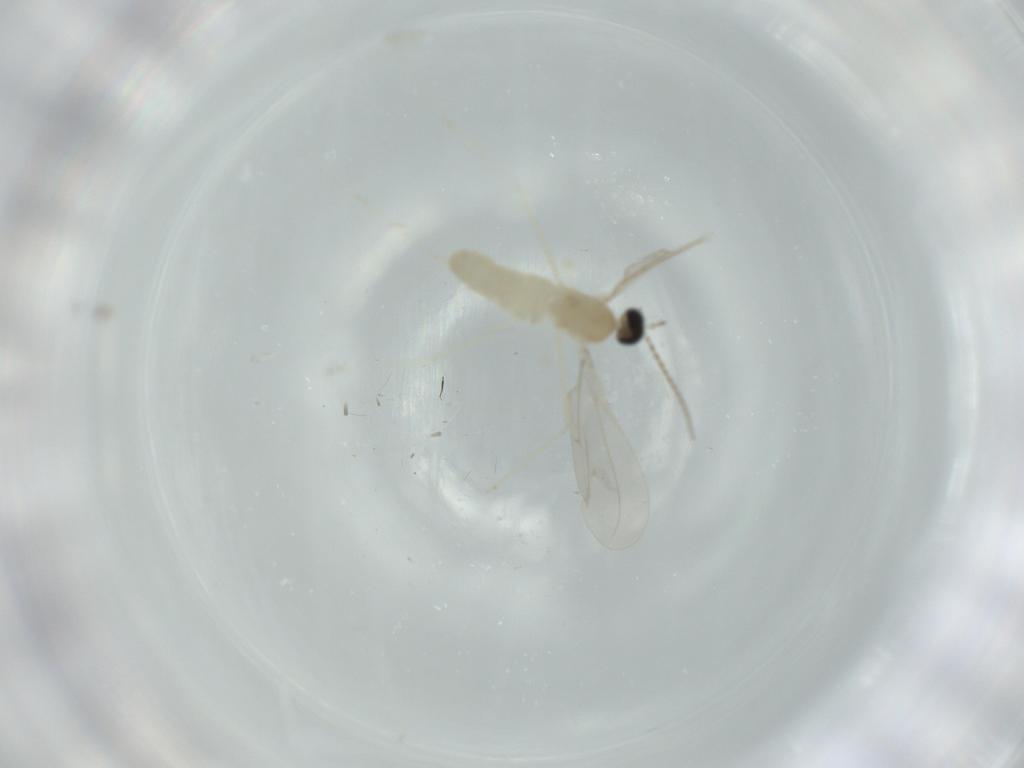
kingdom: Animalia
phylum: Arthropoda
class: Insecta
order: Diptera
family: Cecidomyiidae
